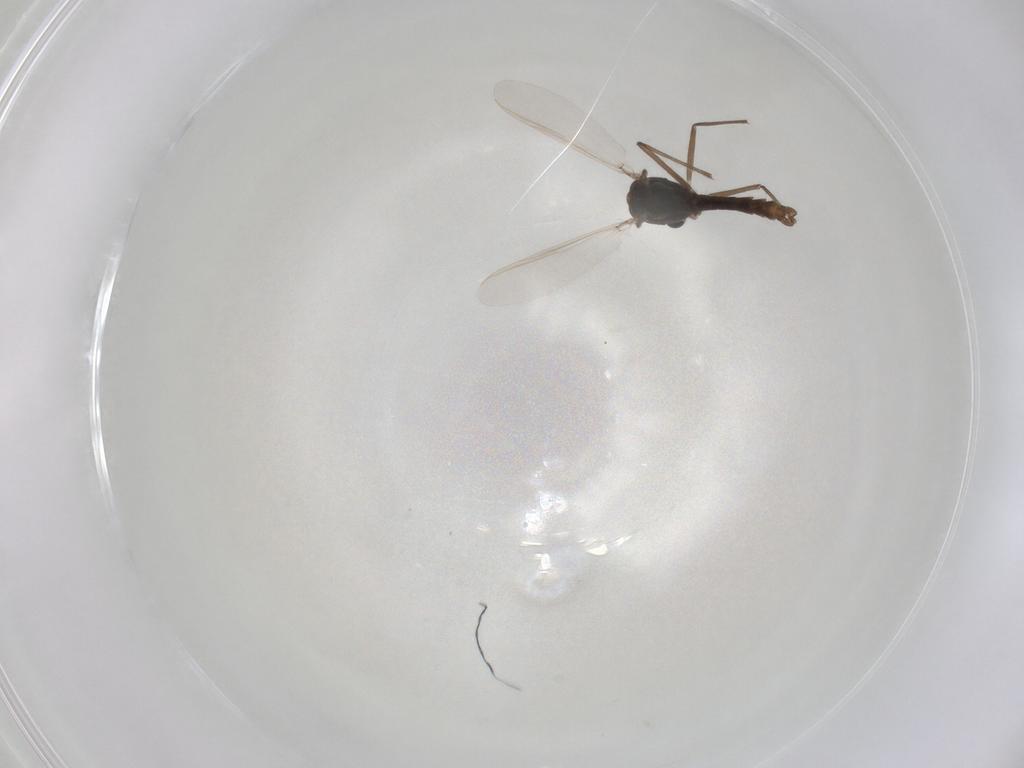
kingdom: Animalia
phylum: Arthropoda
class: Insecta
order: Diptera
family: Chironomidae
